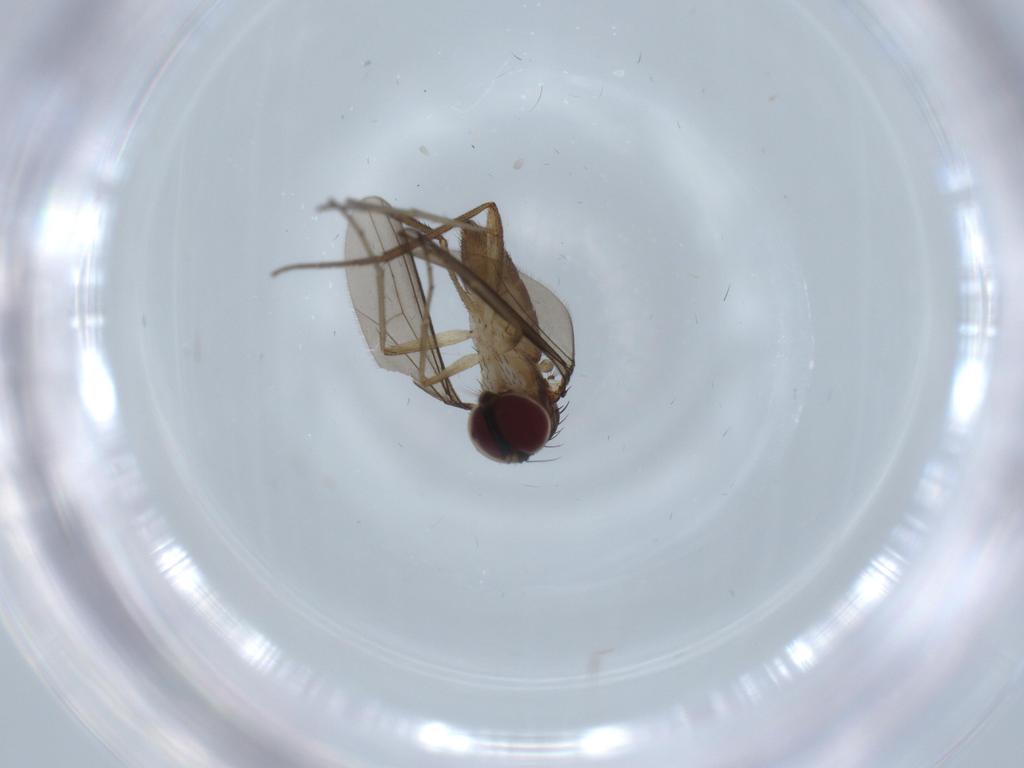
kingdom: Animalia
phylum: Arthropoda
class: Insecta
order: Diptera
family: Dolichopodidae
